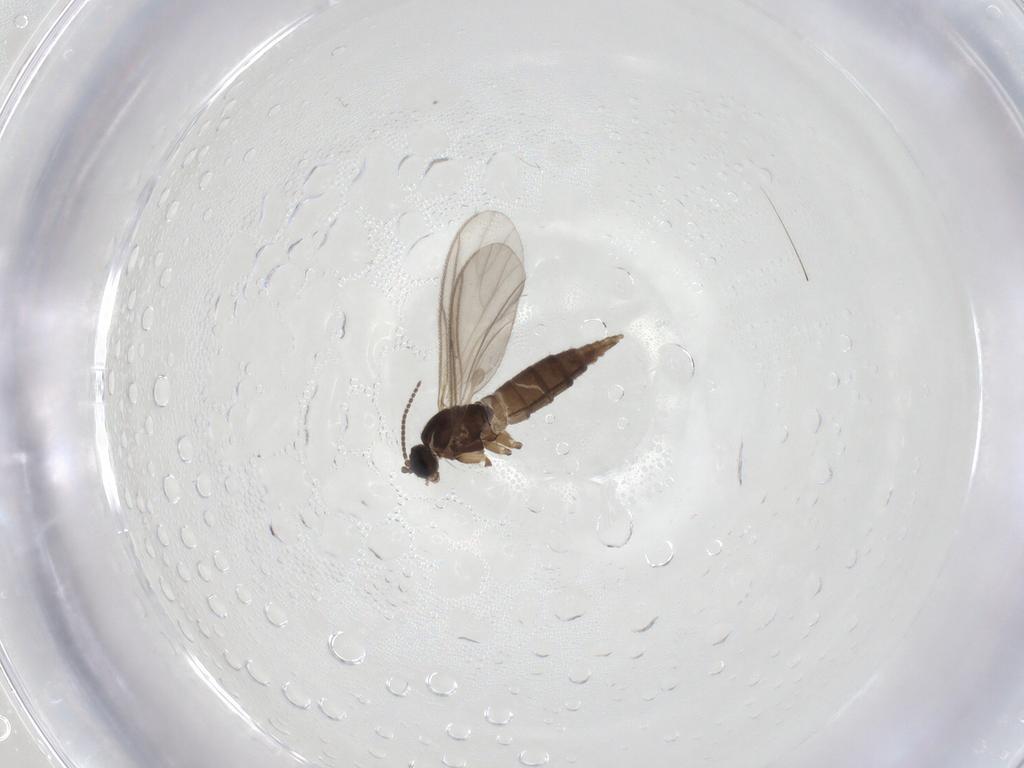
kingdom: Animalia
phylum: Arthropoda
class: Insecta
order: Diptera
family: Sciaridae
